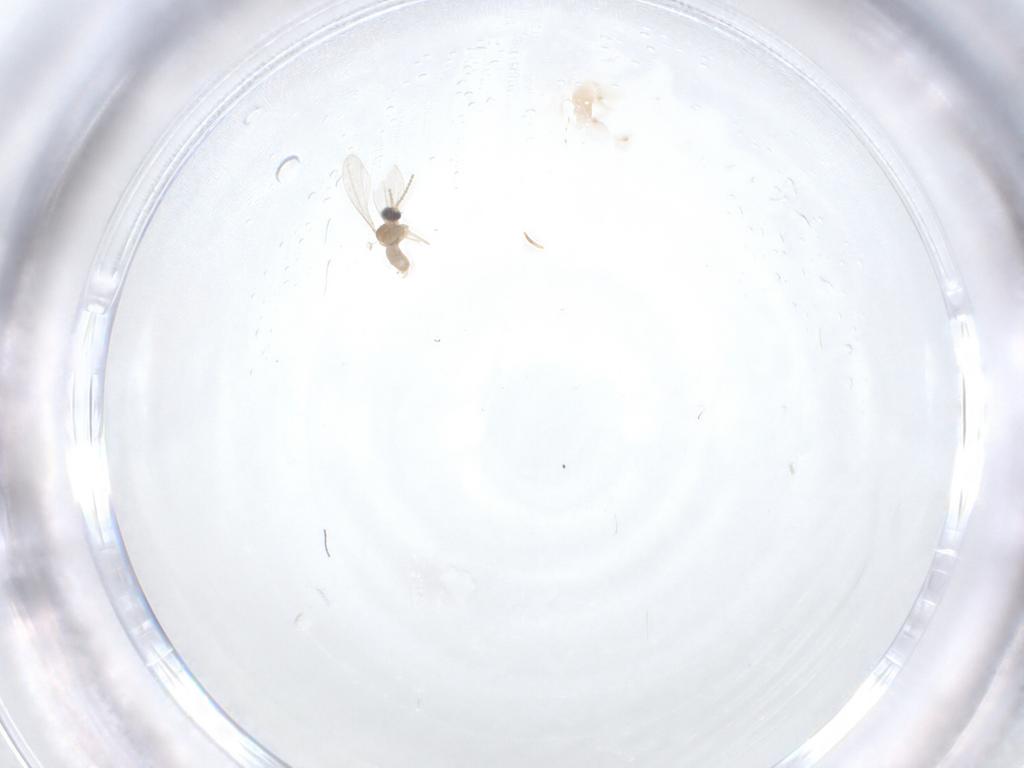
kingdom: Animalia
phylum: Arthropoda
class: Insecta
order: Diptera
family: Cecidomyiidae
